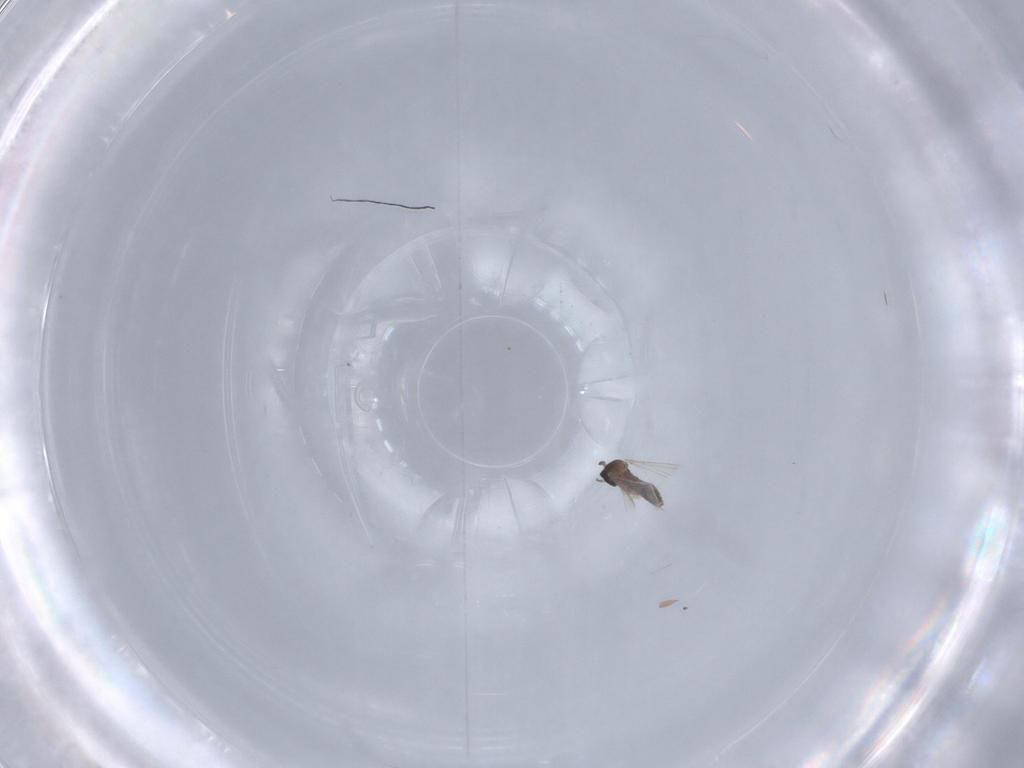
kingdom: Animalia
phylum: Arthropoda
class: Insecta
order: Diptera
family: Cecidomyiidae
